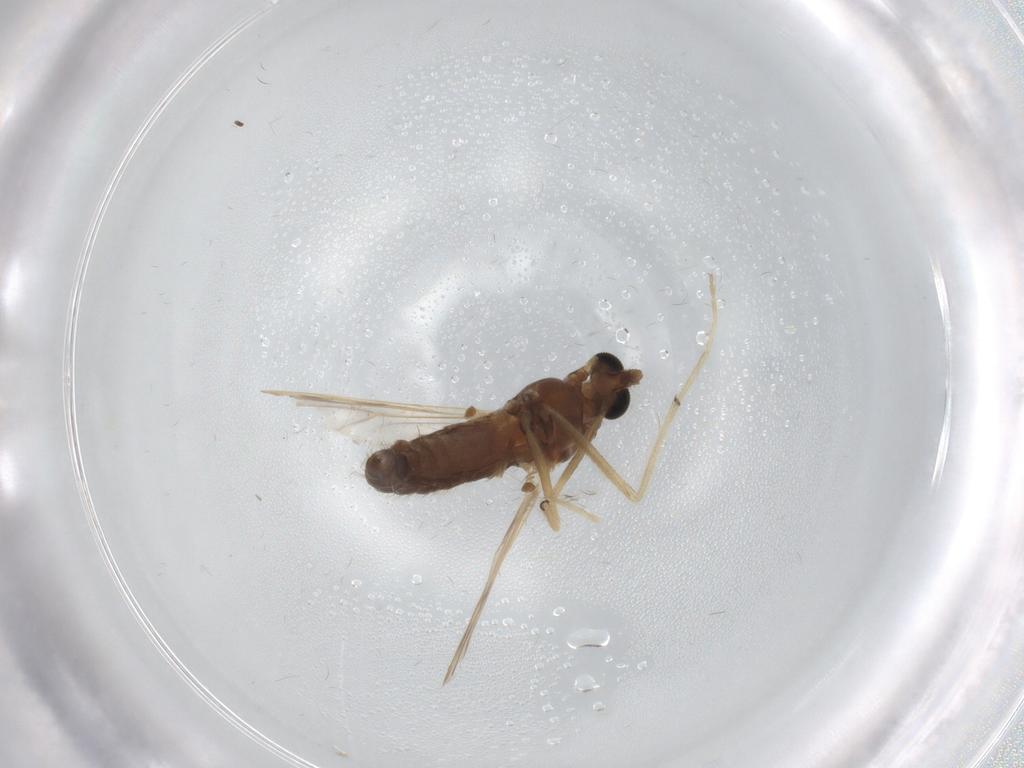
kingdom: Animalia
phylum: Arthropoda
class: Insecta
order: Diptera
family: Chironomidae
